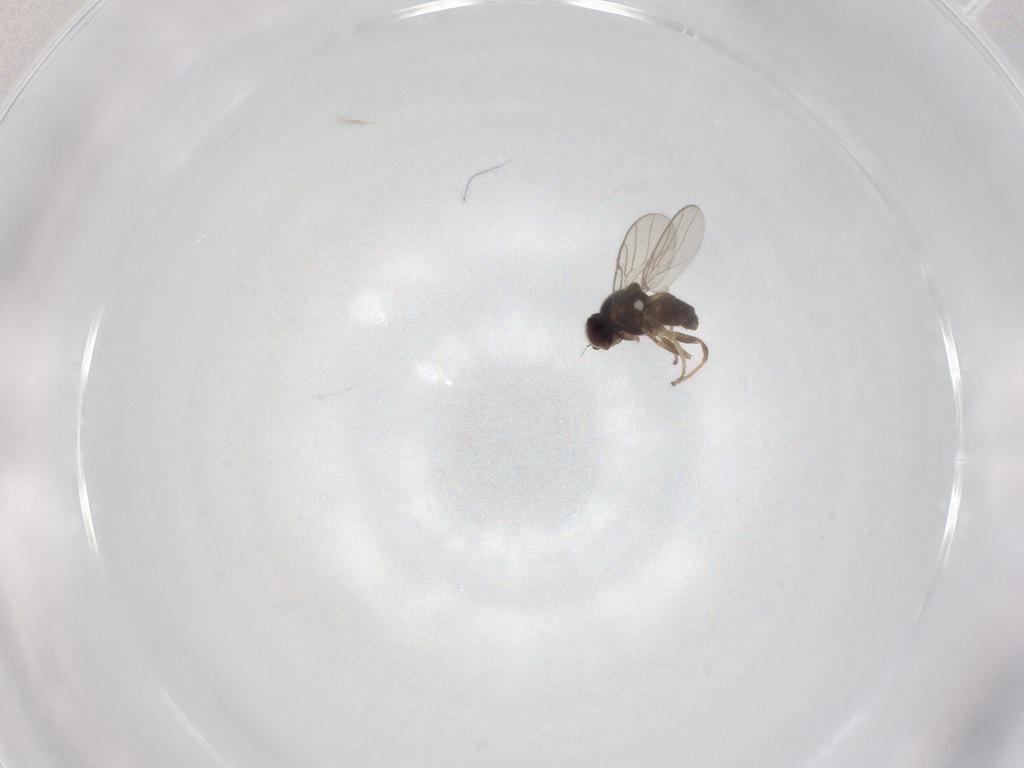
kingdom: Animalia
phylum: Arthropoda
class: Insecta
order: Diptera
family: Chloropidae
